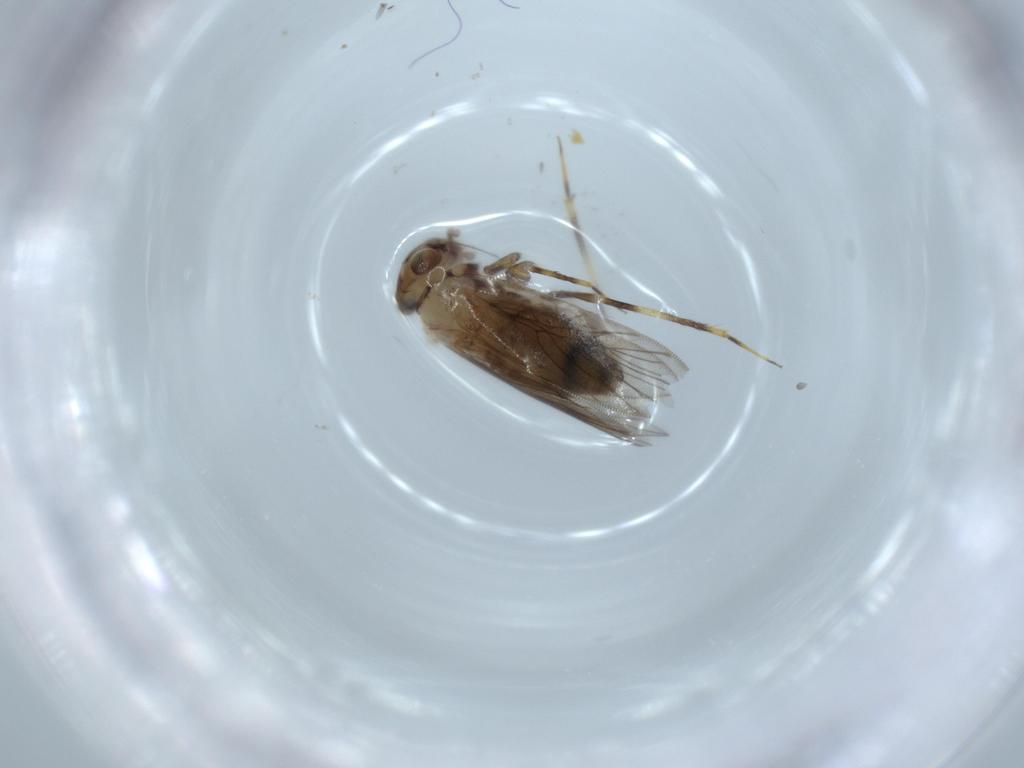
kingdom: Animalia
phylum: Arthropoda
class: Insecta
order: Psocodea
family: Lepidopsocidae
